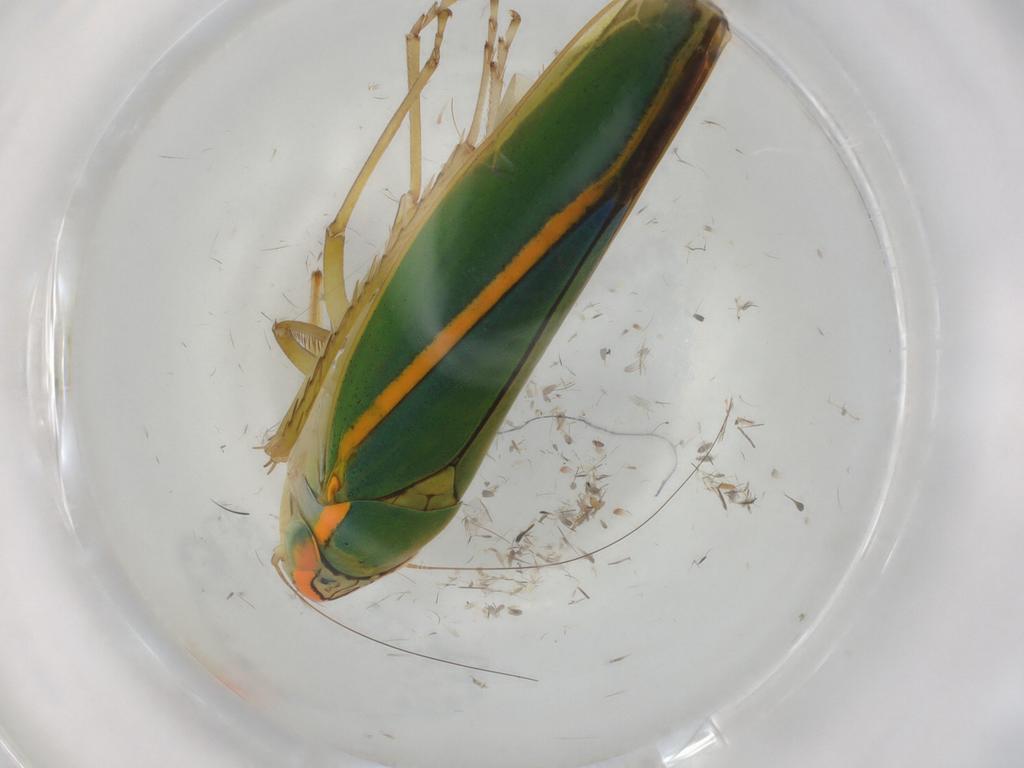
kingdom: Animalia
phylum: Arthropoda
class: Insecta
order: Hemiptera
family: Cicadellidae
